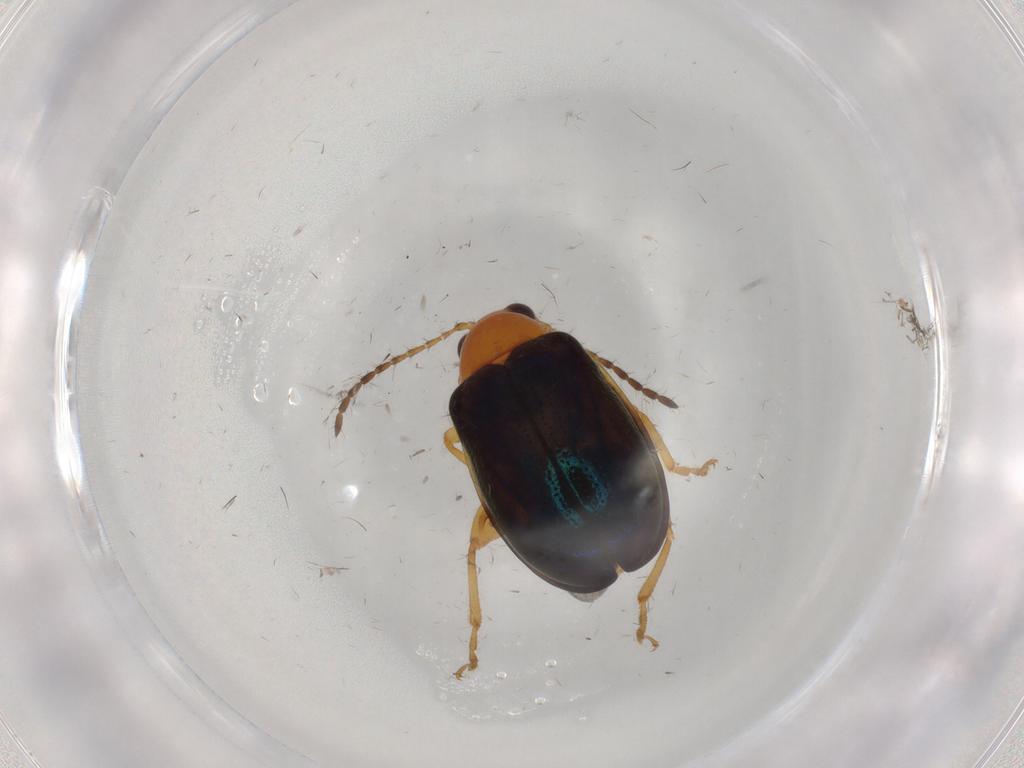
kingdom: Animalia
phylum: Arthropoda
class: Insecta
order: Coleoptera
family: Chrysomelidae
